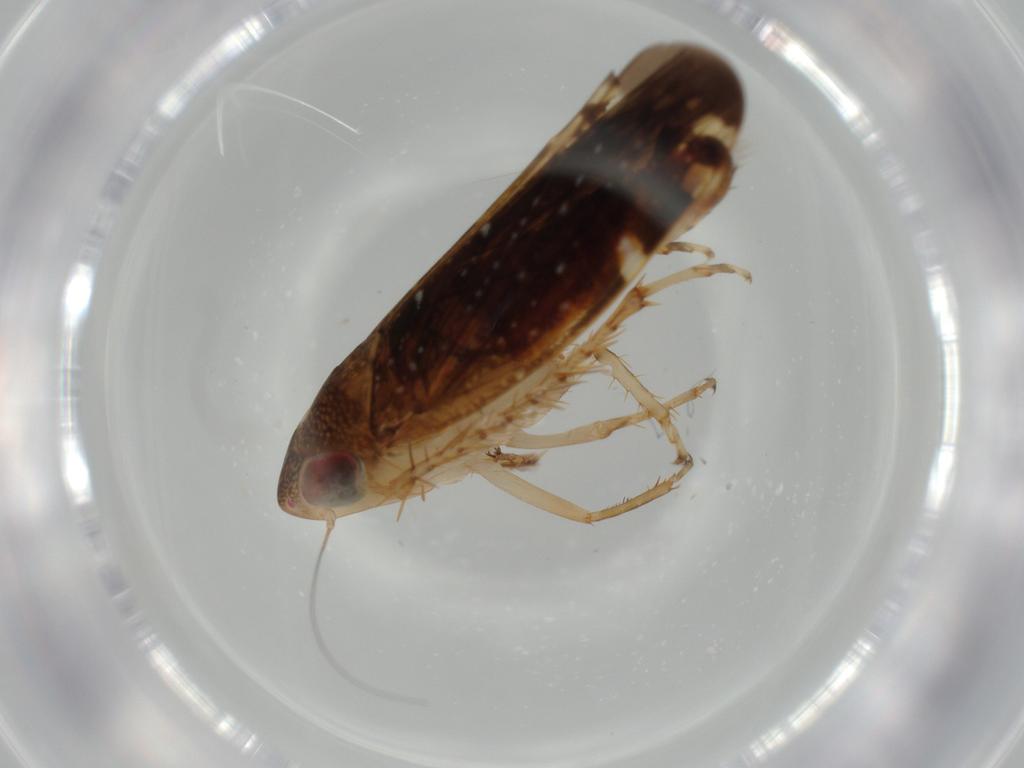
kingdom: Animalia
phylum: Arthropoda
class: Insecta
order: Hemiptera
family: Cicadellidae
